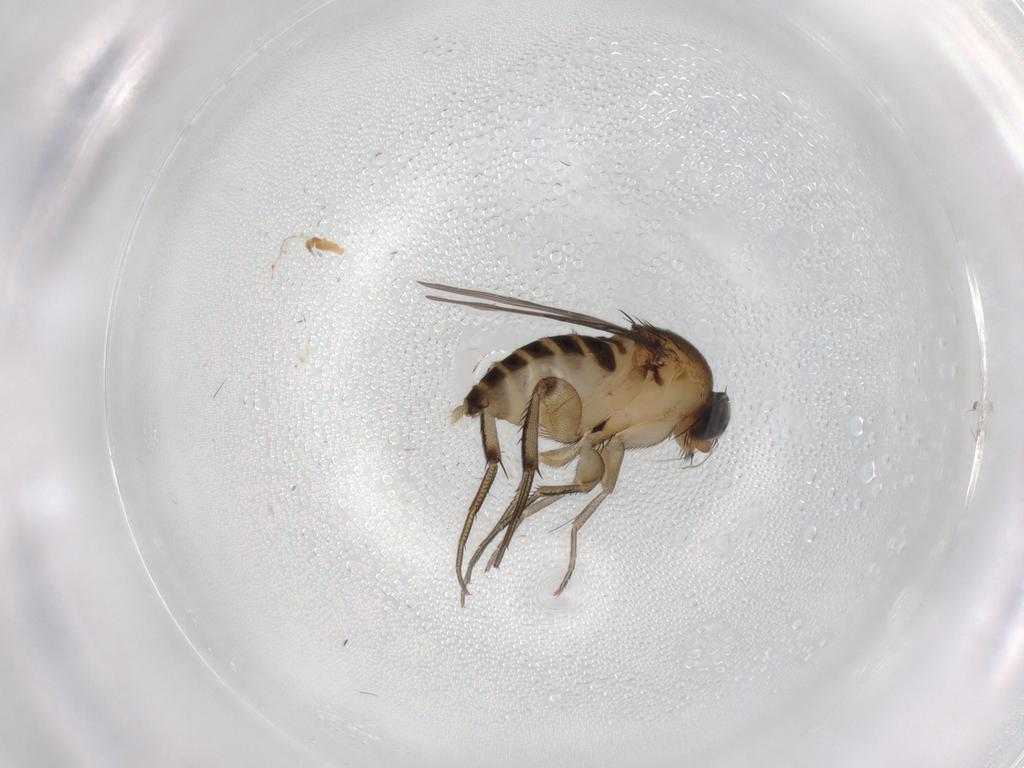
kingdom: Animalia
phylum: Arthropoda
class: Insecta
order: Diptera
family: Phoridae
